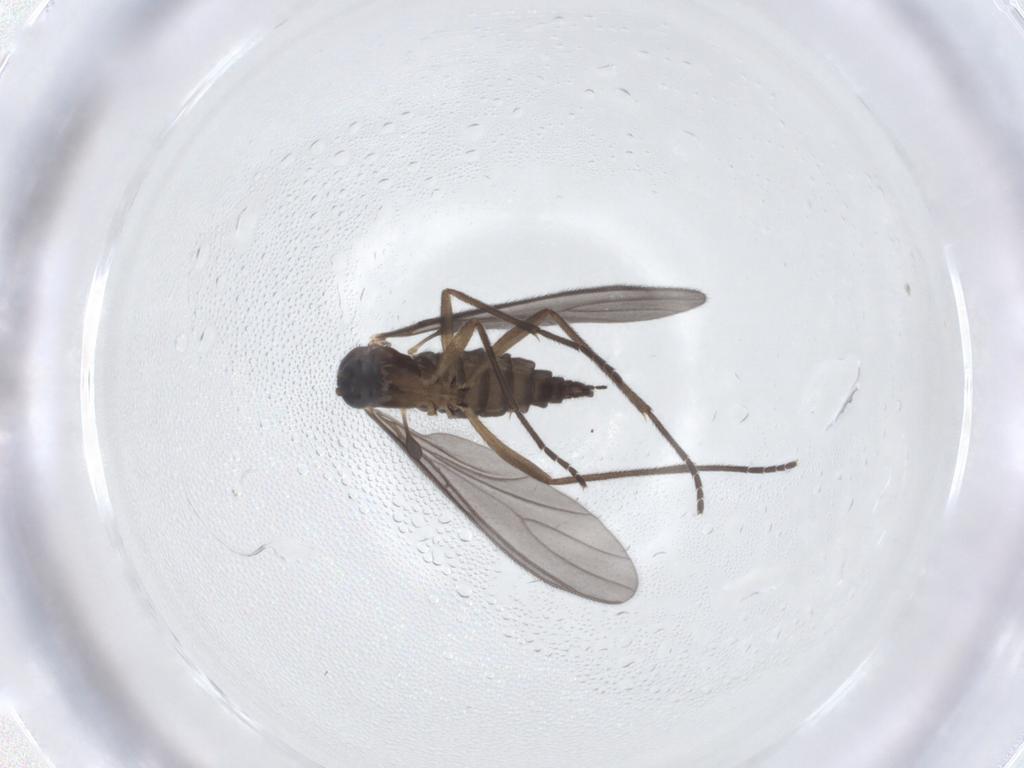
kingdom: Animalia
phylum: Arthropoda
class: Insecta
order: Diptera
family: Sciaridae
